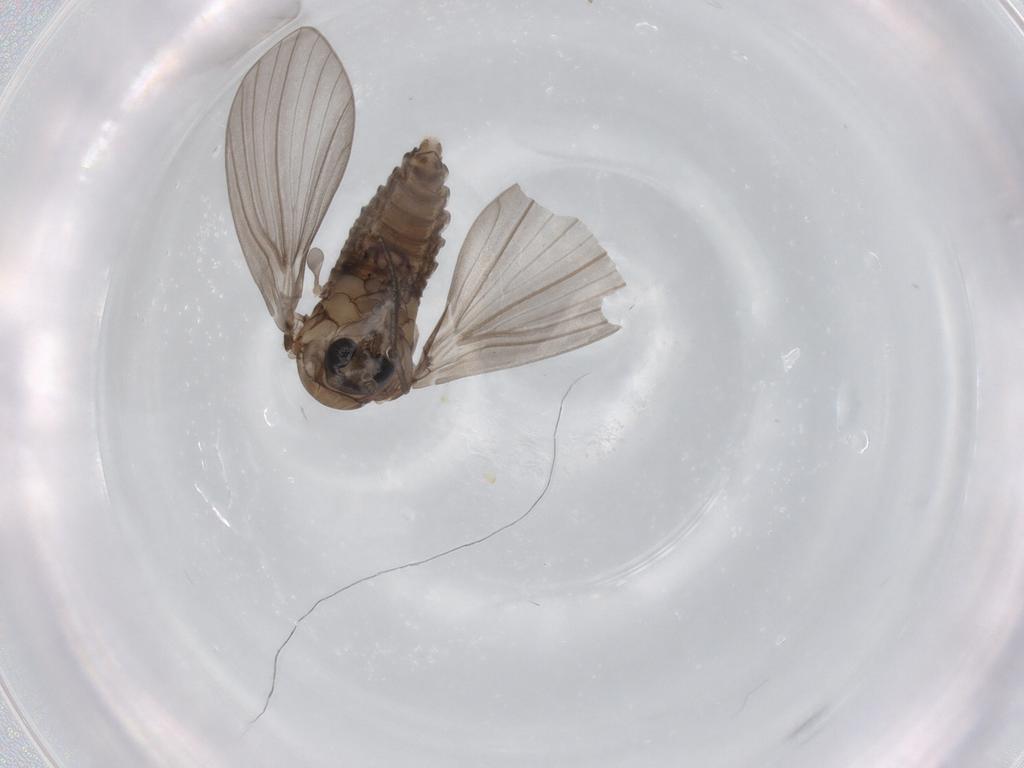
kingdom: Animalia
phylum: Arthropoda
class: Insecta
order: Diptera
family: Psychodidae
